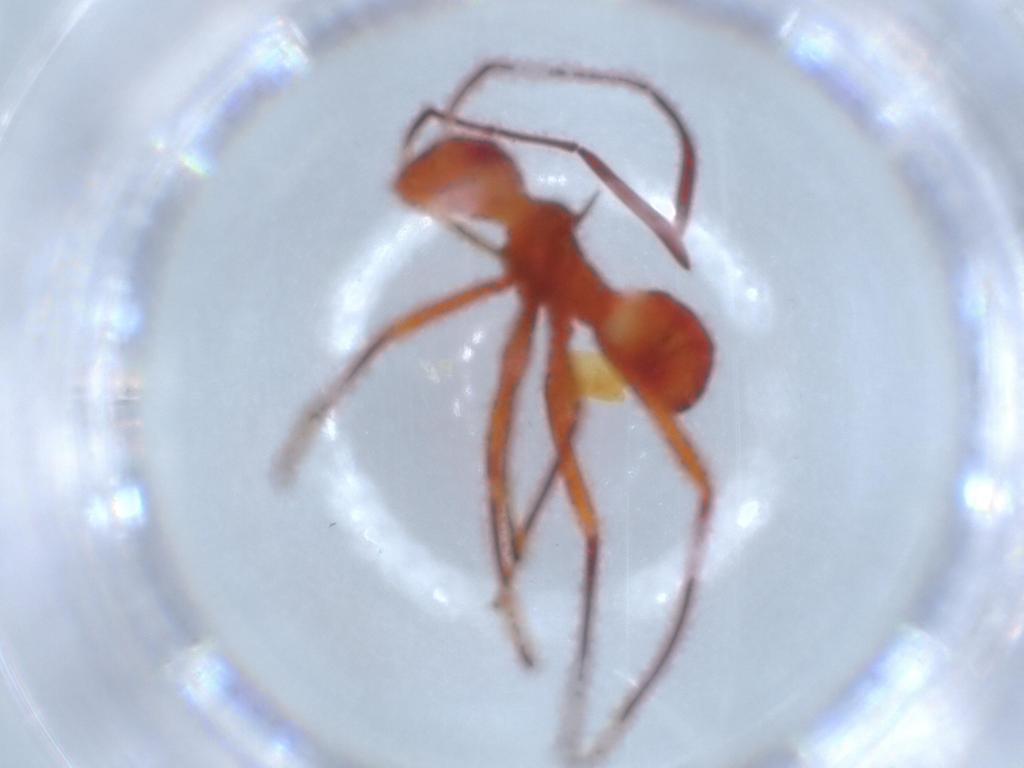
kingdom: Animalia
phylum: Arthropoda
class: Insecta
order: Hemiptera
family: Alydidae
